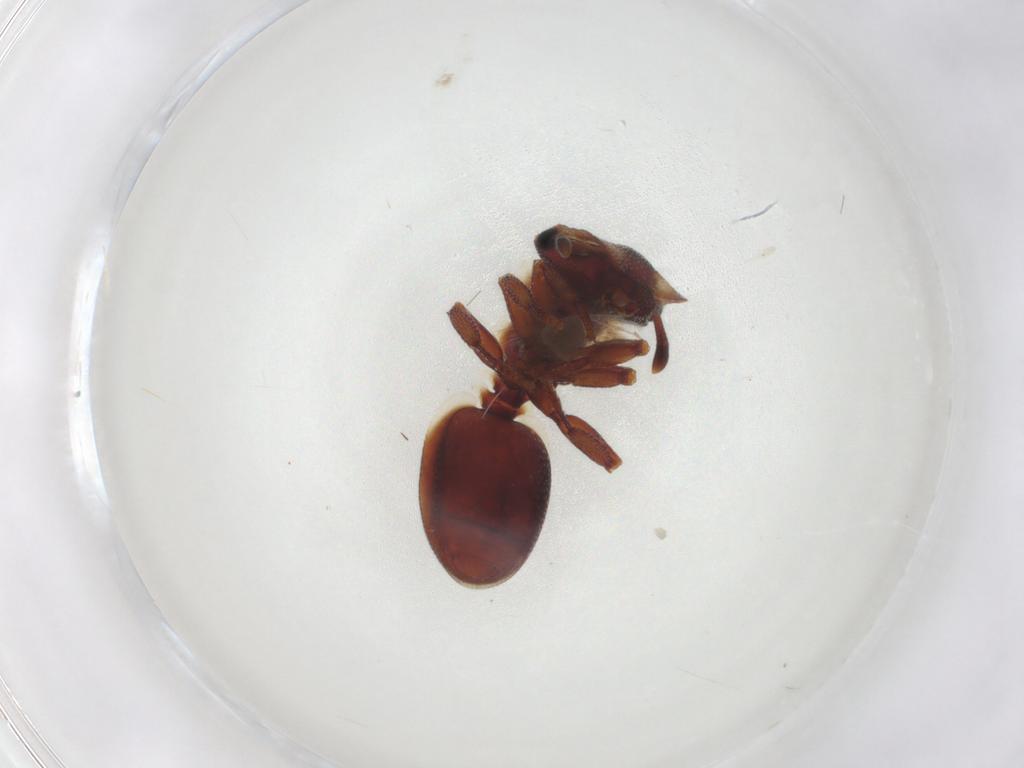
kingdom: Animalia
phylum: Arthropoda
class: Insecta
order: Hymenoptera
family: Formicidae
